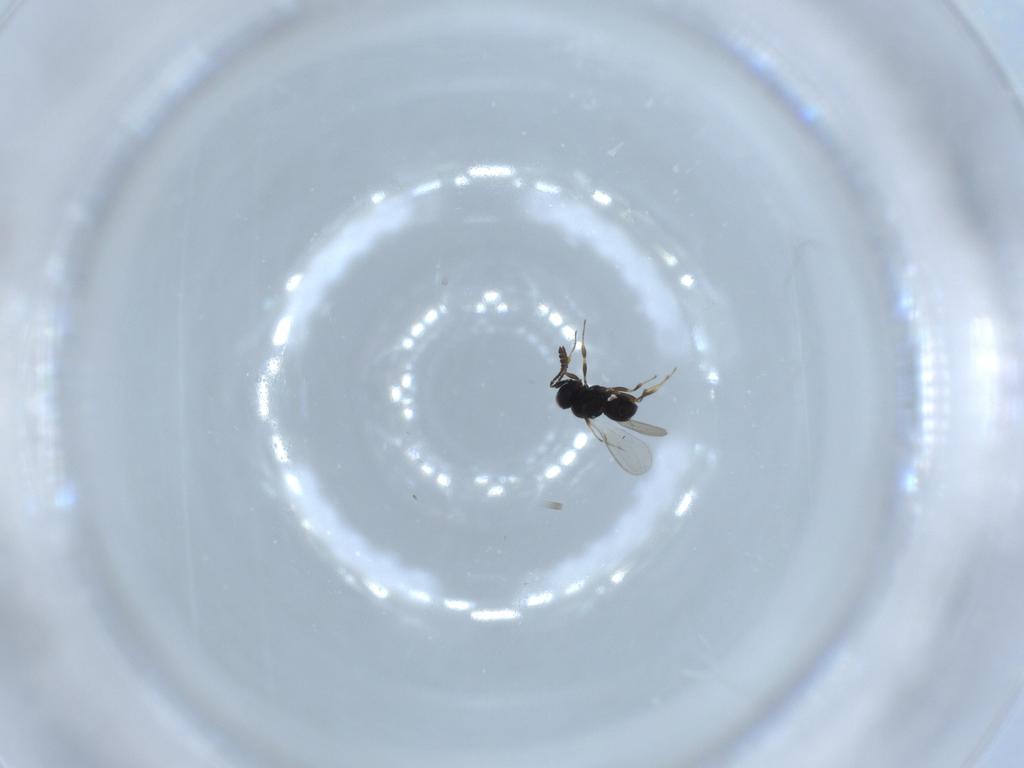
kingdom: Animalia
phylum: Arthropoda
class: Insecta
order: Hymenoptera
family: Scelionidae
